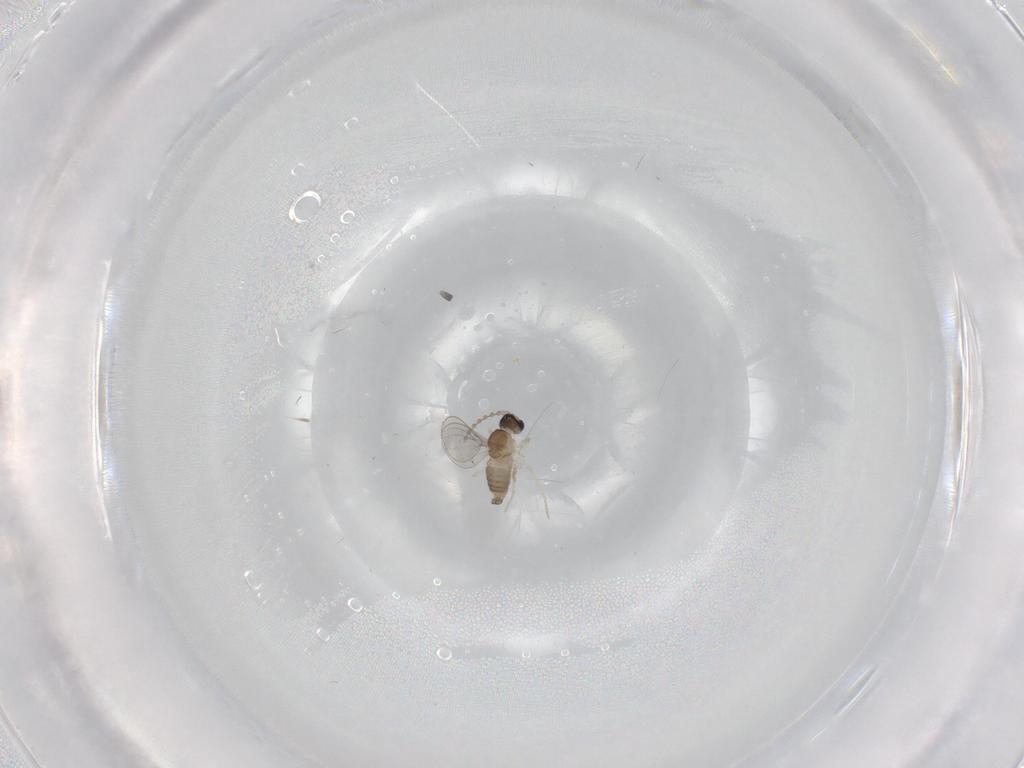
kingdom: Animalia
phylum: Arthropoda
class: Insecta
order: Diptera
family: Cecidomyiidae
